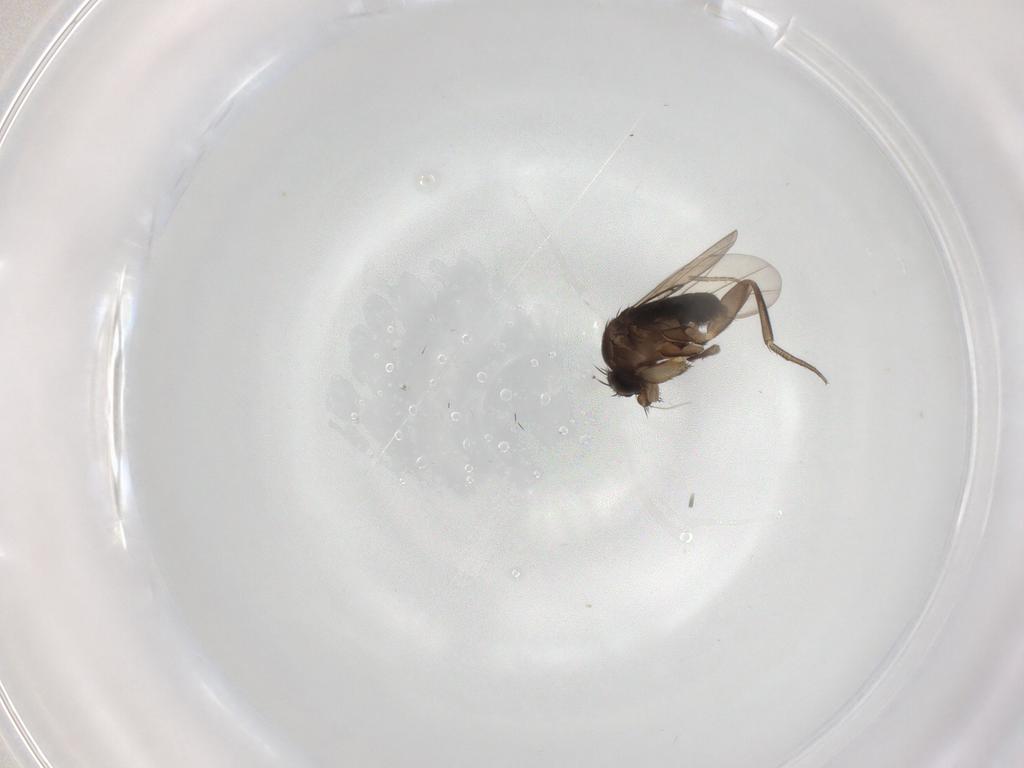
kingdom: Animalia
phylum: Arthropoda
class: Insecta
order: Diptera
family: Phoridae
